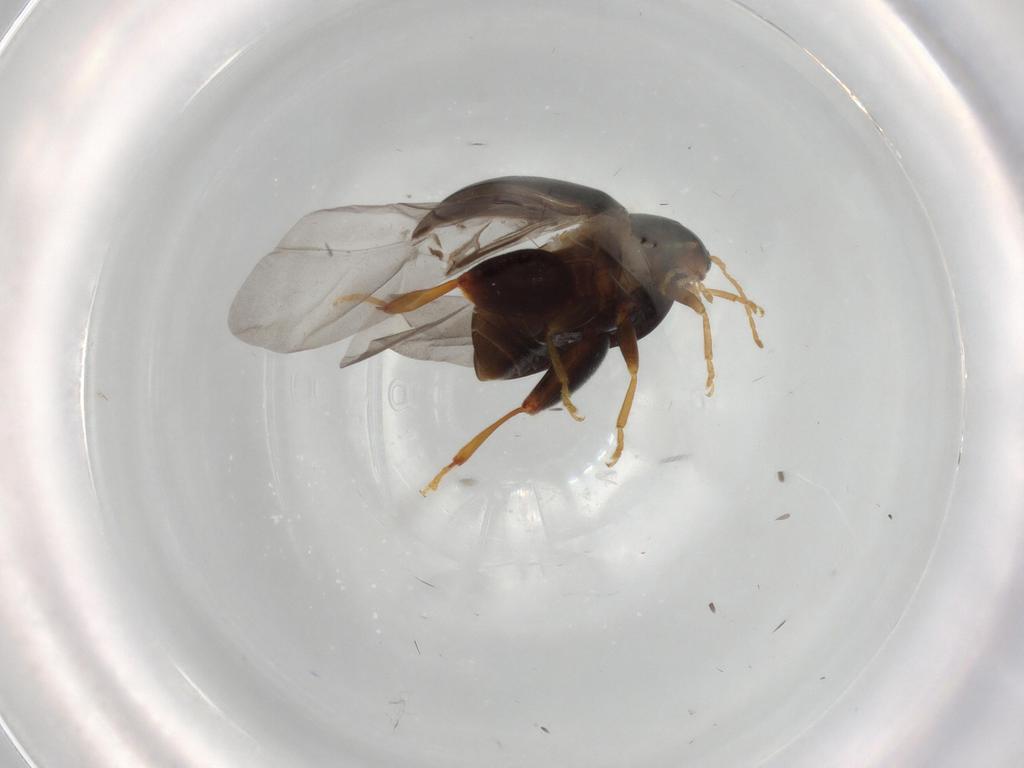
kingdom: Animalia
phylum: Arthropoda
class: Insecta
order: Coleoptera
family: Chrysomelidae
